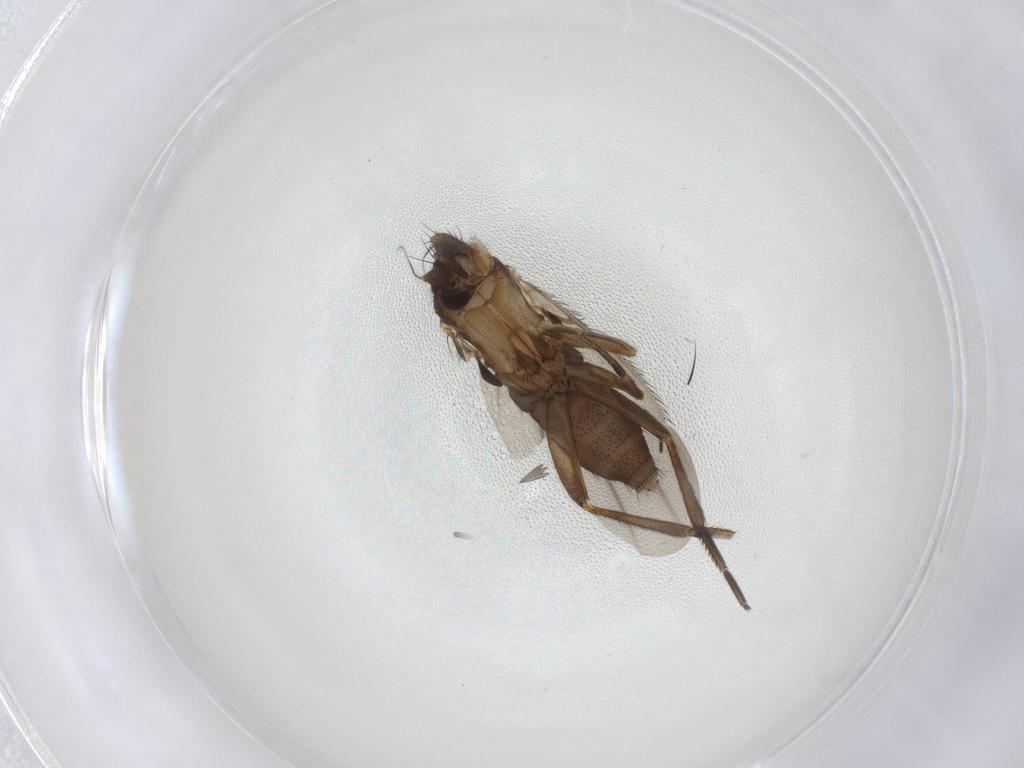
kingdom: Animalia
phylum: Arthropoda
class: Insecta
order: Diptera
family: Phoridae
